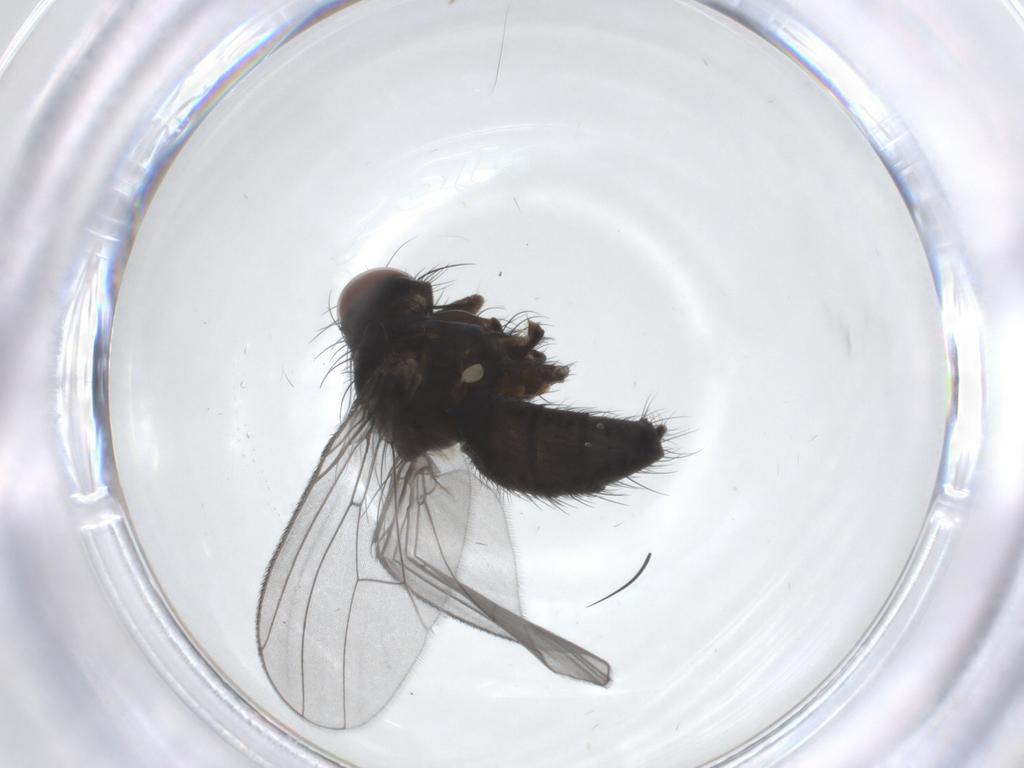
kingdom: Animalia
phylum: Arthropoda
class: Insecta
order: Diptera
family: Muscidae
